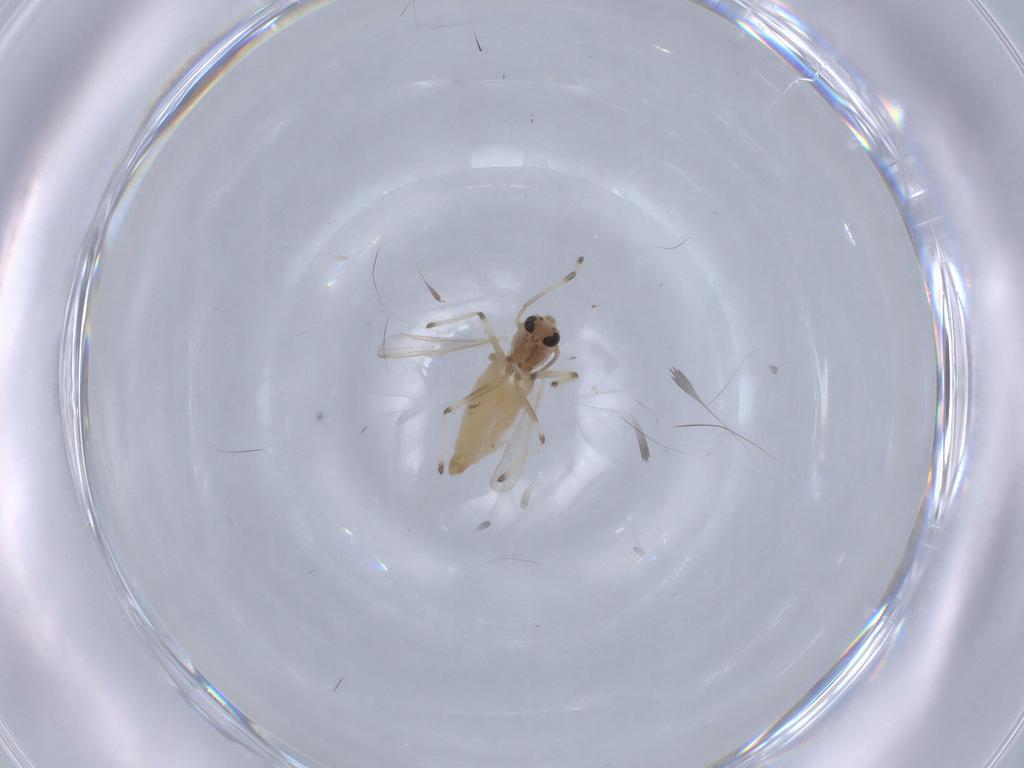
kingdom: Animalia
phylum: Arthropoda
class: Insecta
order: Diptera
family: Chironomidae
